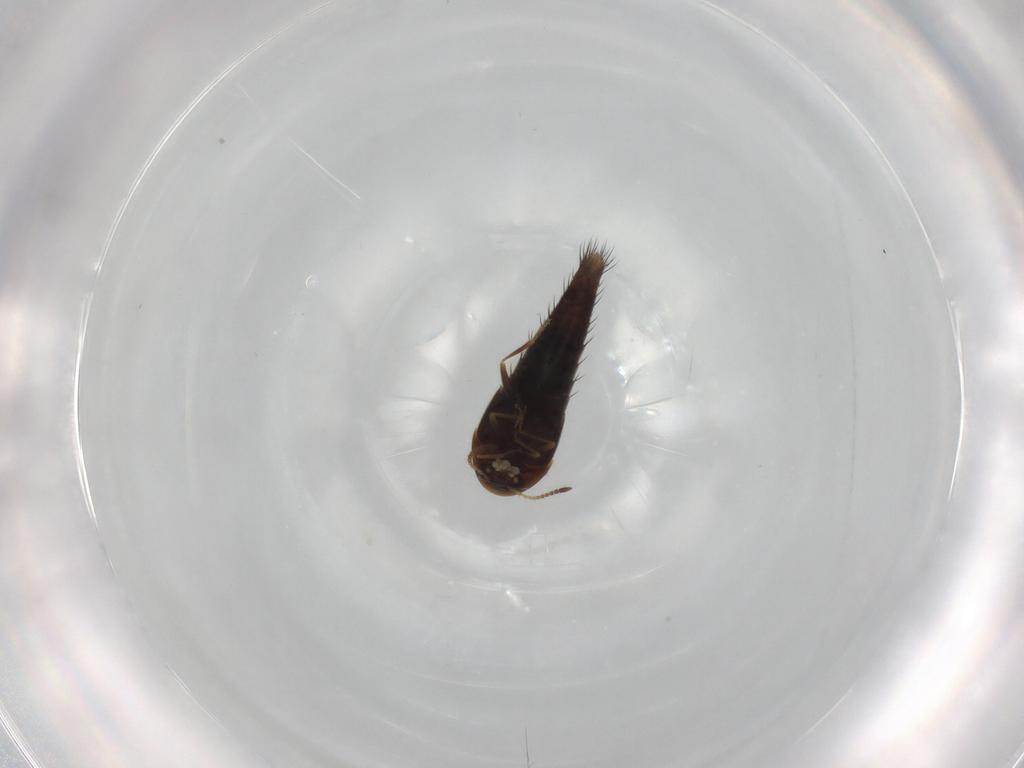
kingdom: Animalia
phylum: Arthropoda
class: Insecta
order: Coleoptera
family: Staphylinidae
